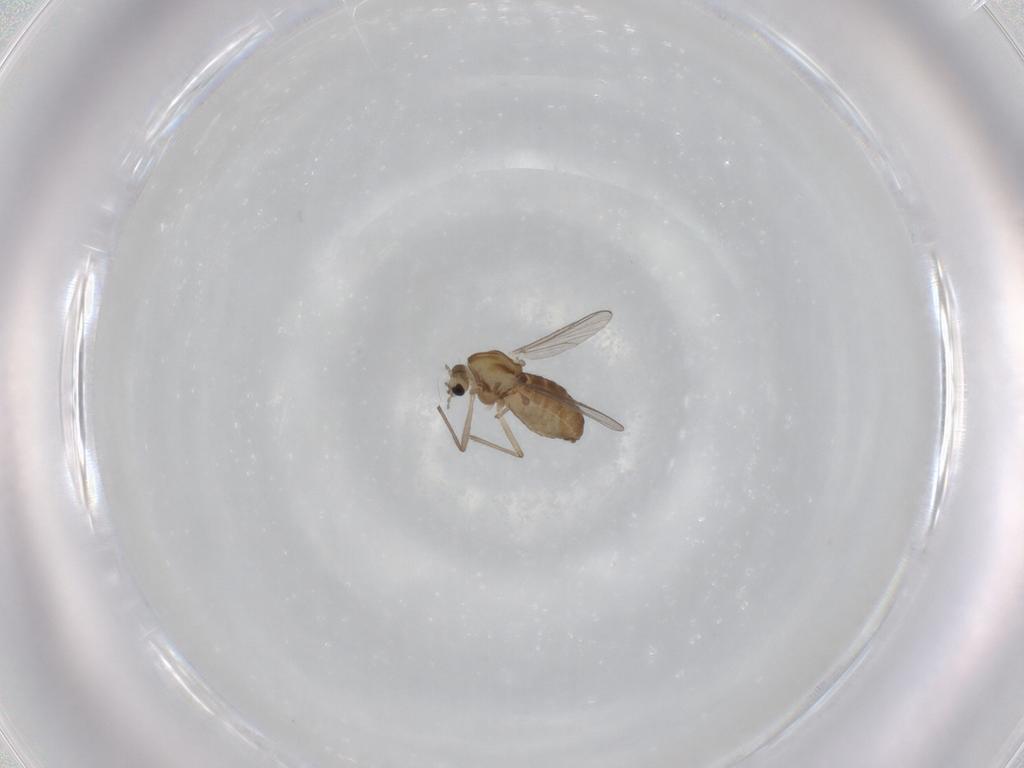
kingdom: Animalia
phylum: Arthropoda
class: Insecta
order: Diptera
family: Chironomidae
